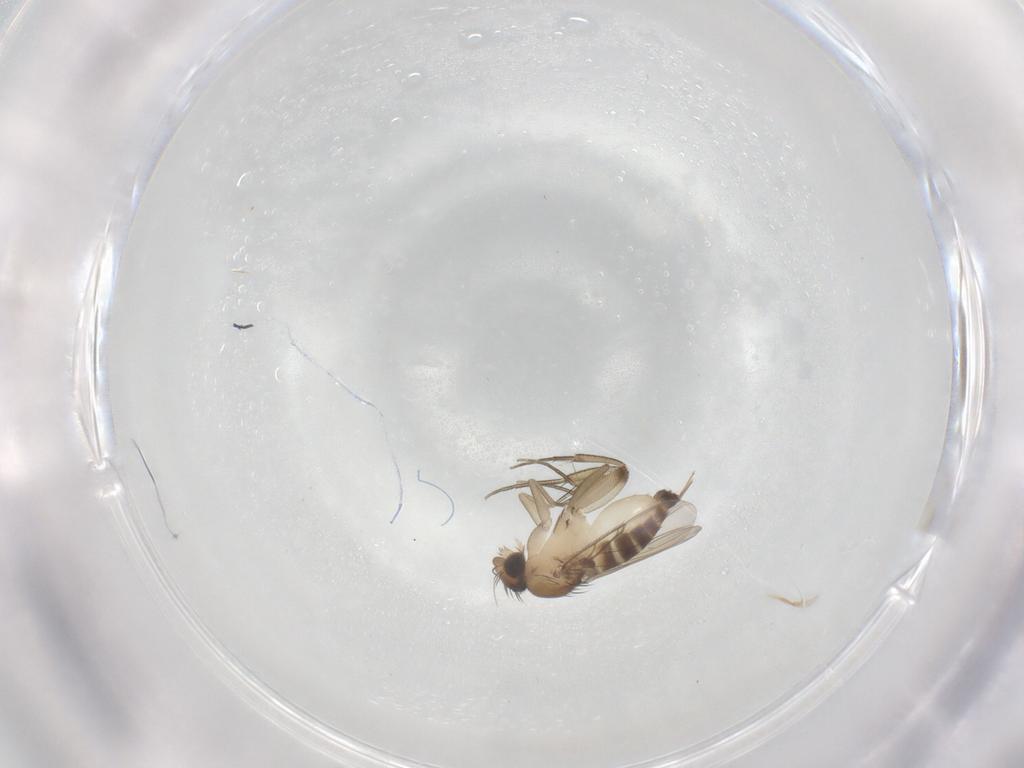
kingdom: Animalia
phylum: Arthropoda
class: Insecta
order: Diptera
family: Phoridae
